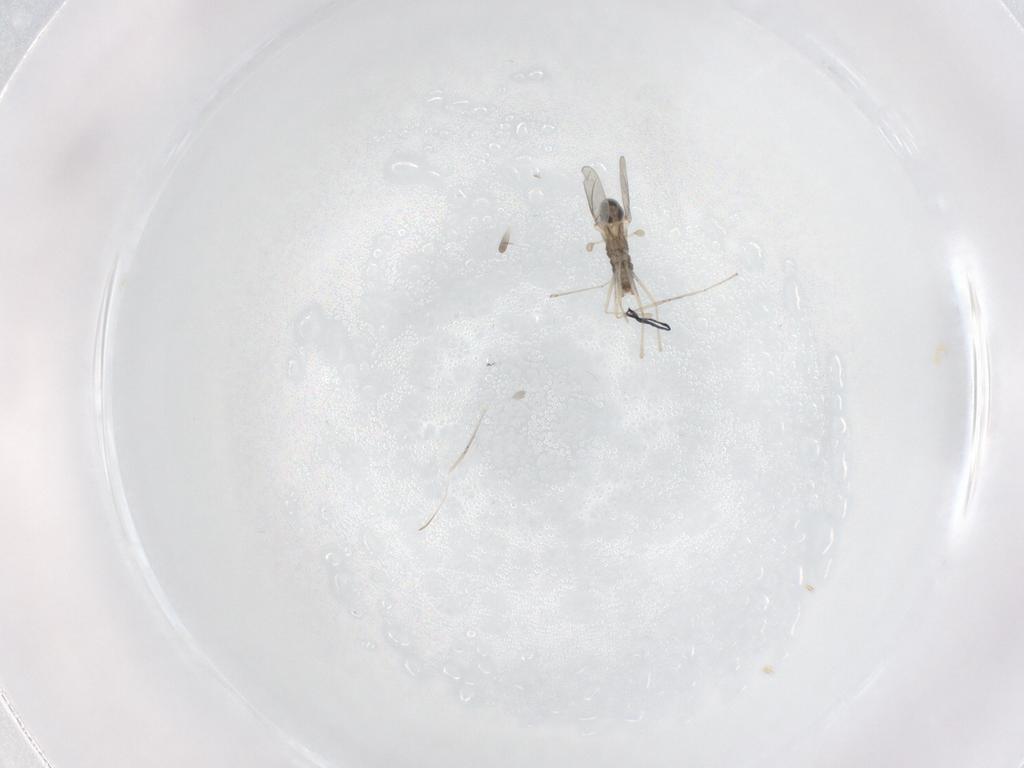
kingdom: Animalia
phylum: Arthropoda
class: Insecta
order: Diptera
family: Cecidomyiidae
